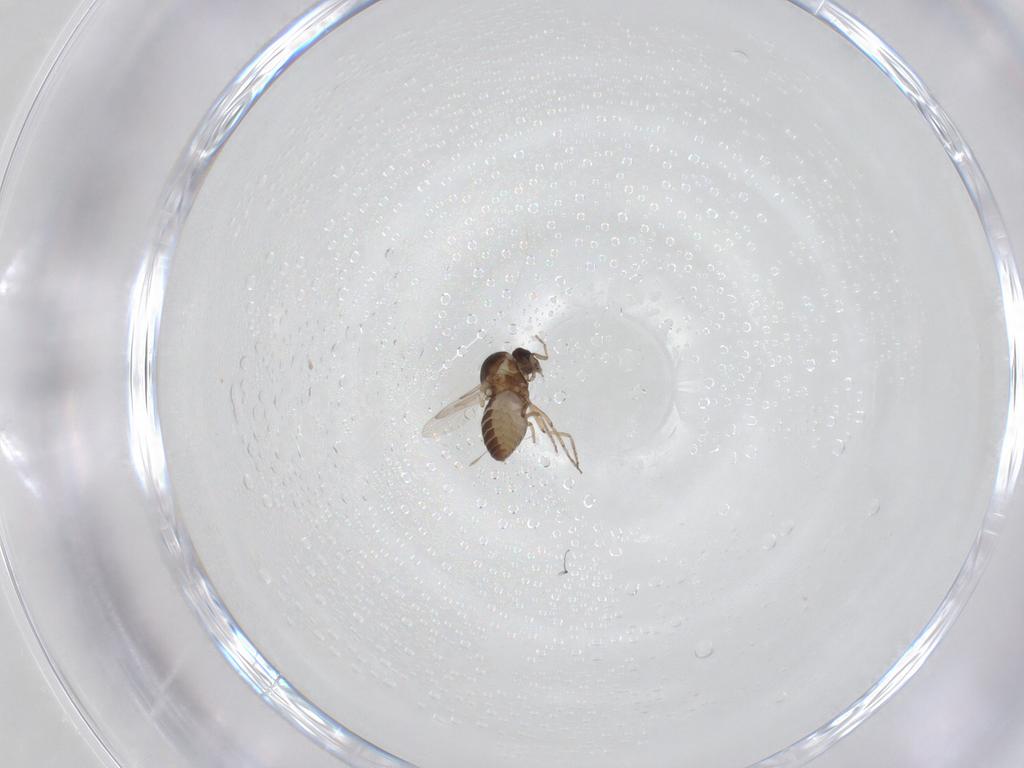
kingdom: Animalia
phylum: Arthropoda
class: Insecta
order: Diptera
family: Ceratopogonidae
